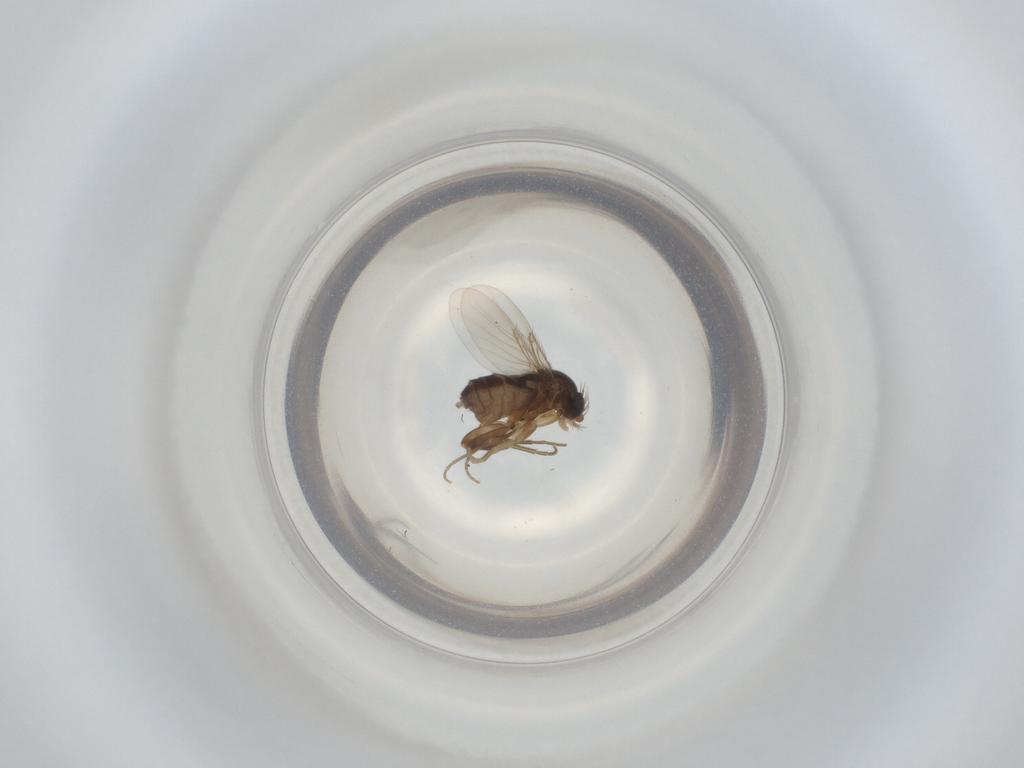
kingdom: Animalia
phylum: Arthropoda
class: Insecta
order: Diptera
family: Phoridae
